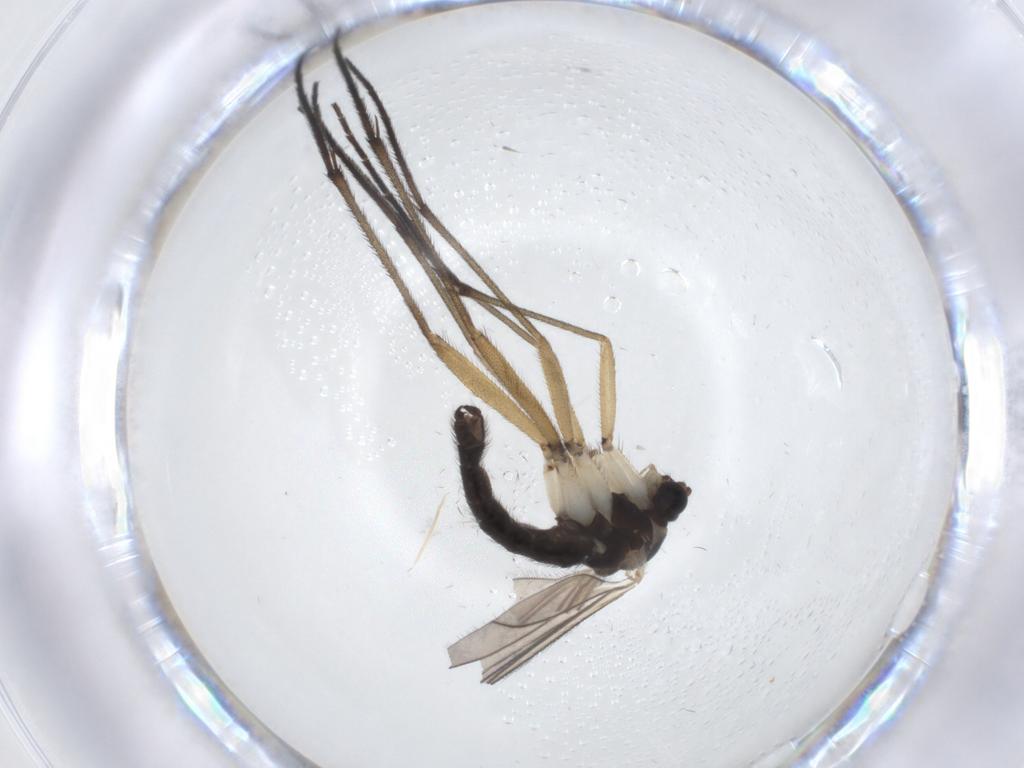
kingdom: Animalia
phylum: Arthropoda
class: Insecta
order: Diptera
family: Sciaridae
